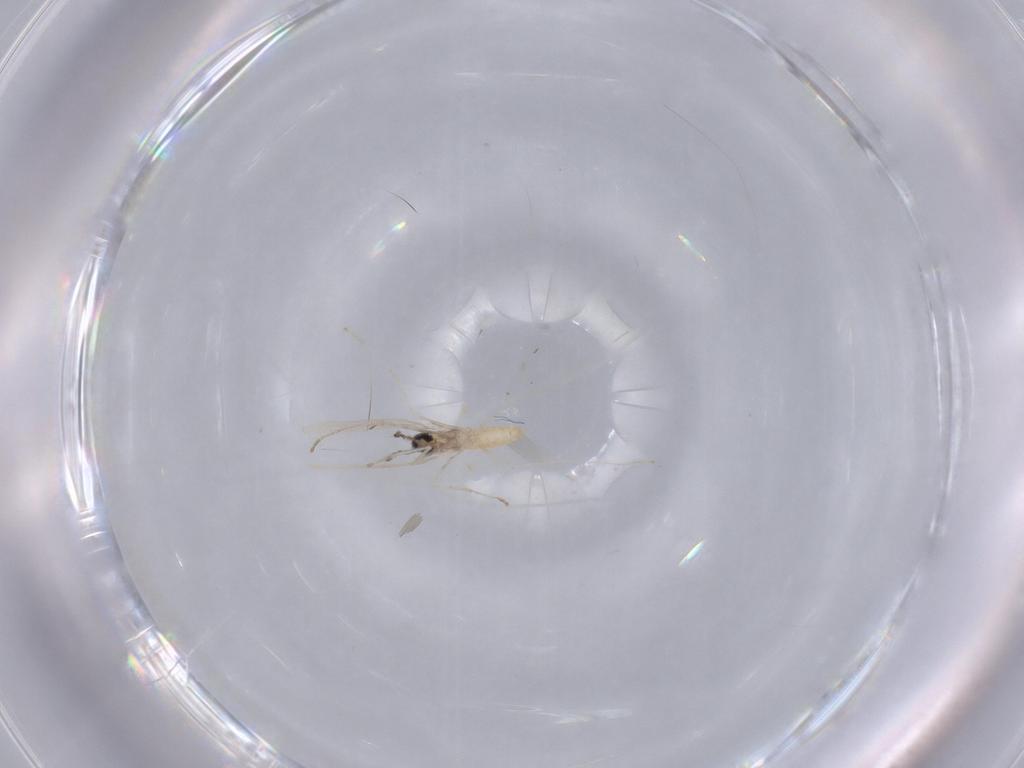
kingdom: Animalia
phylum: Arthropoda
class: Insecta
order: Diptera
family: Cecidomyiidae
